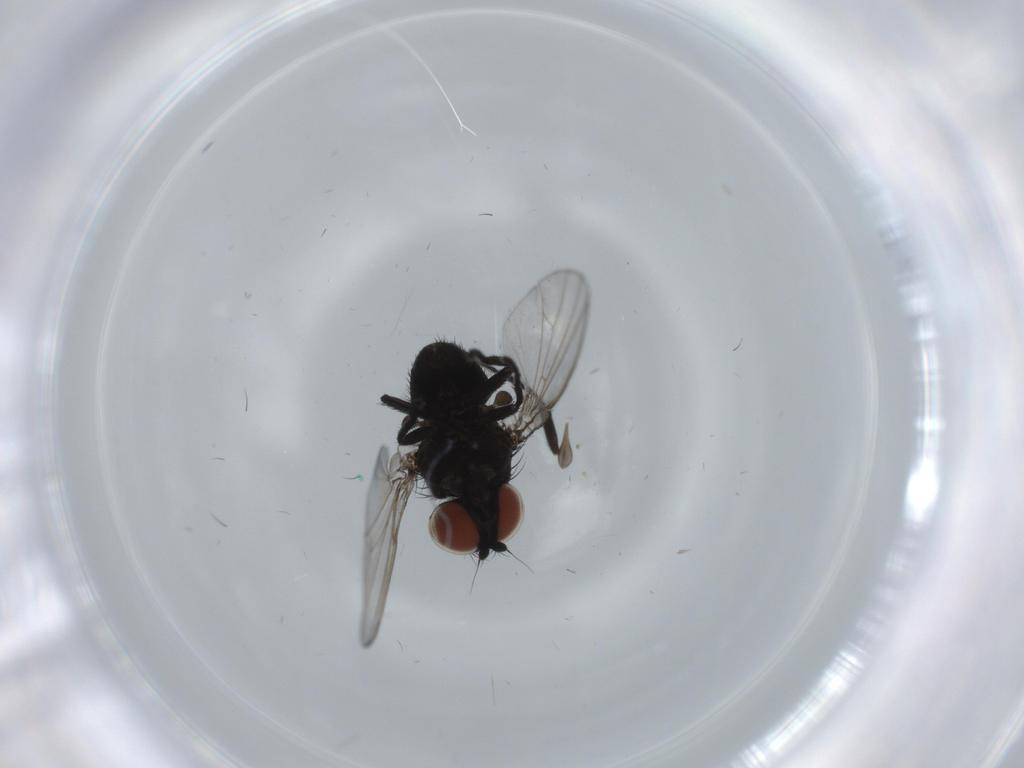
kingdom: Animalia
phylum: Arthropoda
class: Insecta
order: Diptera
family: Milichiidae
